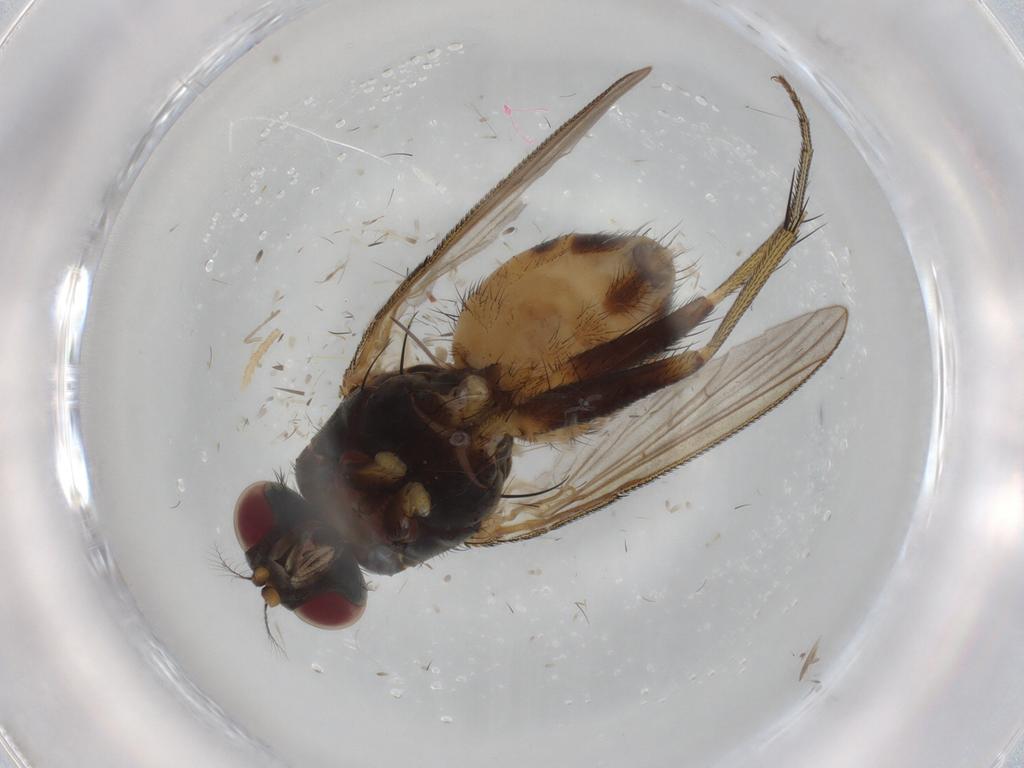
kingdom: Animalia
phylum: Arthropoda
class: Insecta
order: Diptera
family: Muscidae
